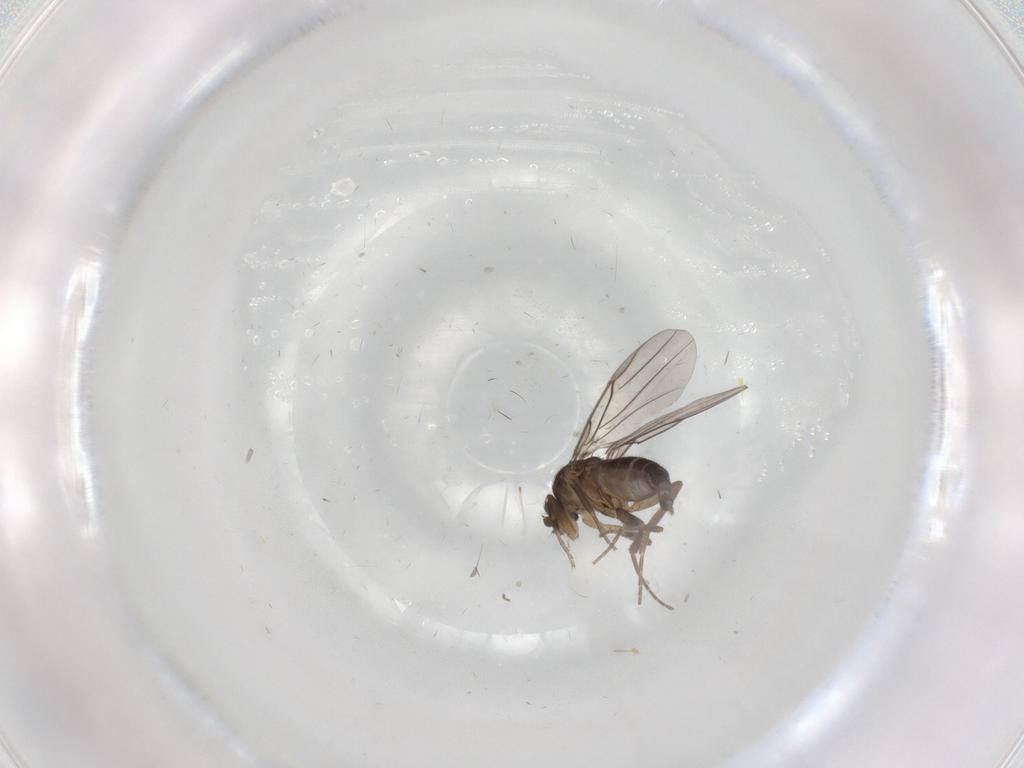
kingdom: Animalia
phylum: Arthropoda
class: Insecta
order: Diptera
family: Phoridae
